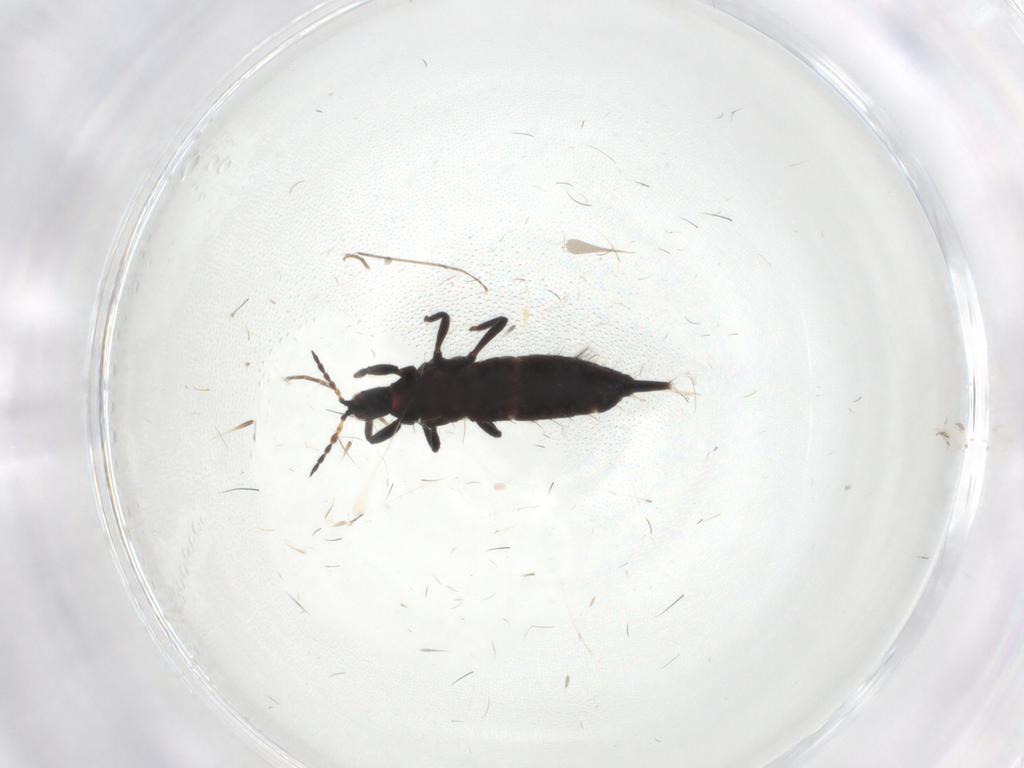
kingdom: Animalia
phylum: Arthropoda
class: Insecta
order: Thysanoptera
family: Phlaeothripidae
